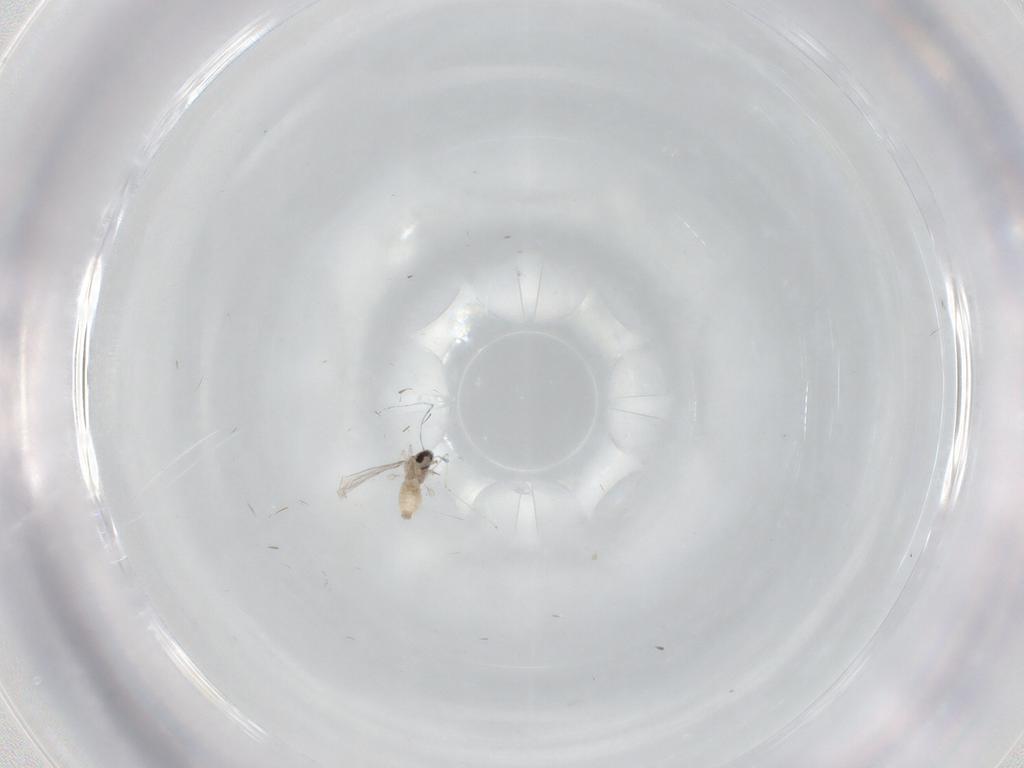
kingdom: Animalia
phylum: Arthropoda
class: Insecta
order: Diptera
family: Cecidomyiidae
